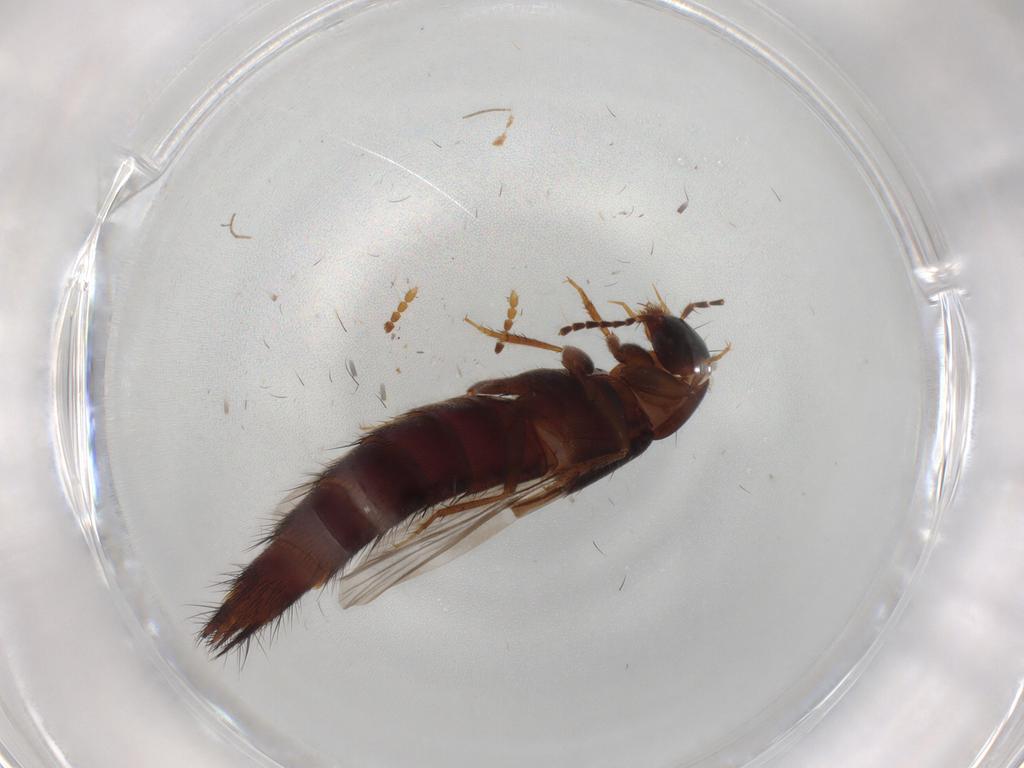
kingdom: Animalia
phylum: Arthropoda
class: Insecta
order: Coleoptera
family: Staphylinidae
